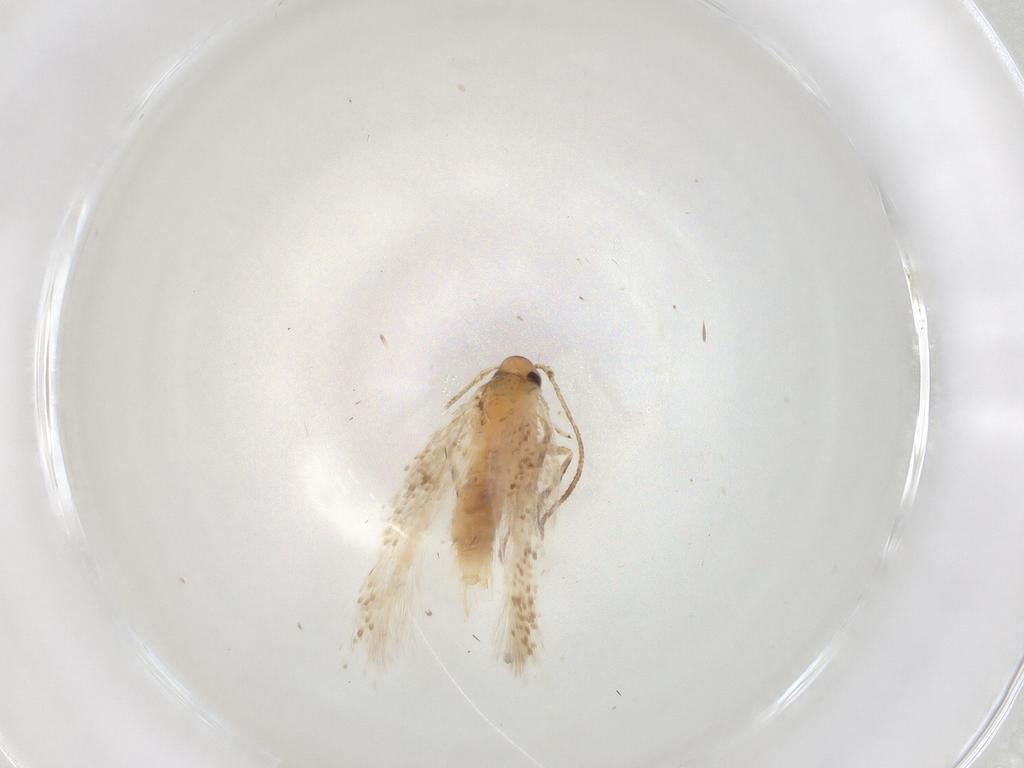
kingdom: Animalia
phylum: Arthropoda
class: Insecta
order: Lepidoptera
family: Gelechiidae
